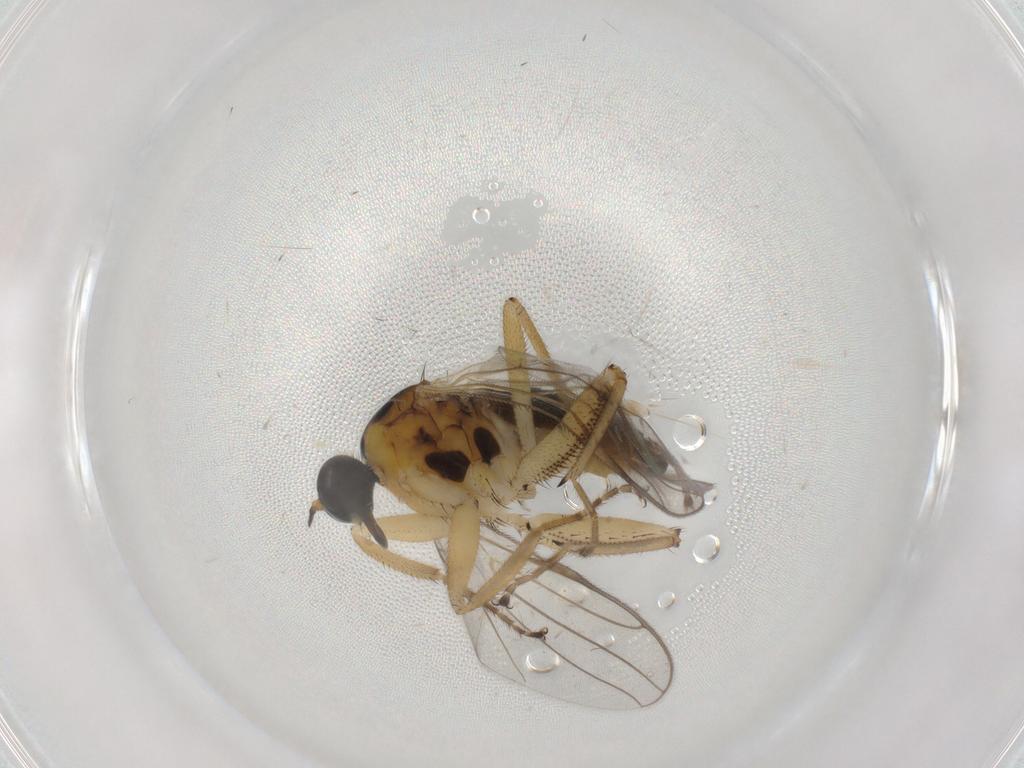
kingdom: Animalia
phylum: Arthropoda
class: Insecta
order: Diptera
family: Hybotidae
